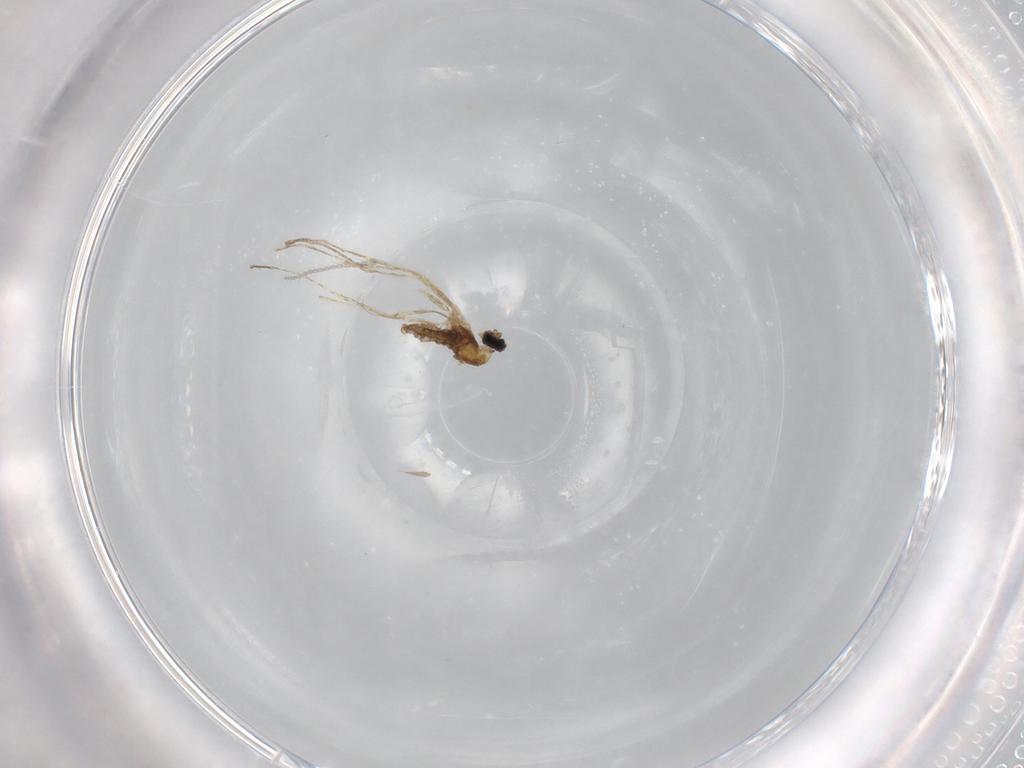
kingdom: Animalia
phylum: Arthropoda
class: Insecta
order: Diptera
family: Cecidomyiidae
